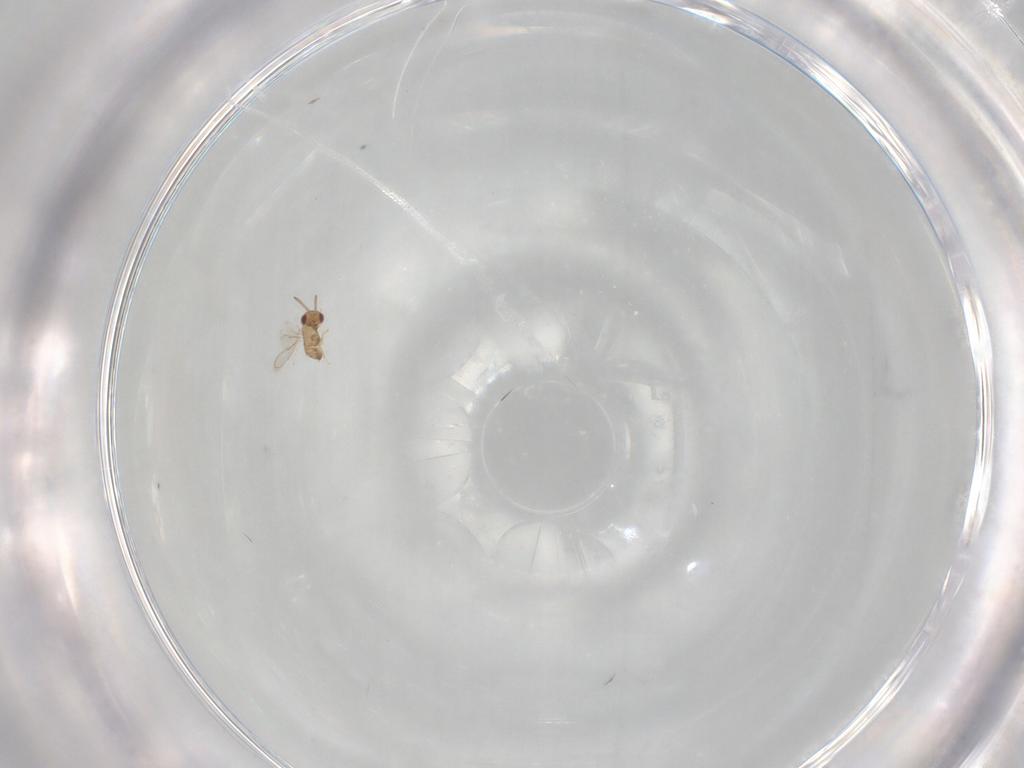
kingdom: Animalia
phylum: Arthropoda
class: Insecta
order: Hymenoptera
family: Aphelinidae
